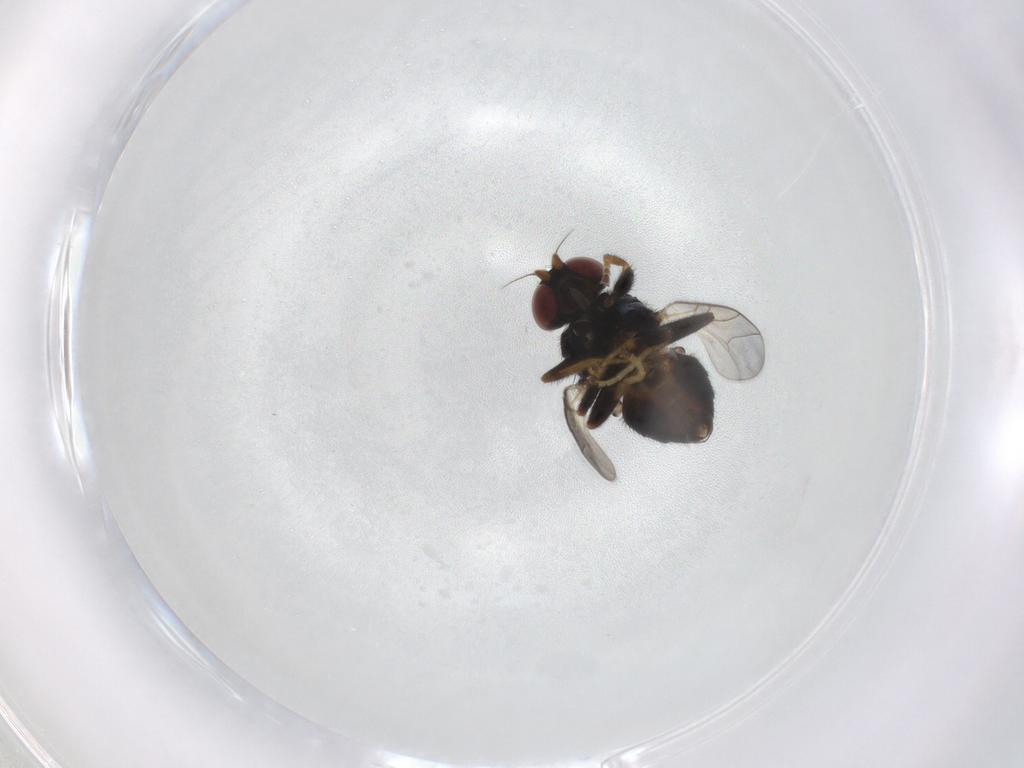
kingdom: Animalia
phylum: Arthropoda
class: Insecta
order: Diptera
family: Chloropidae
